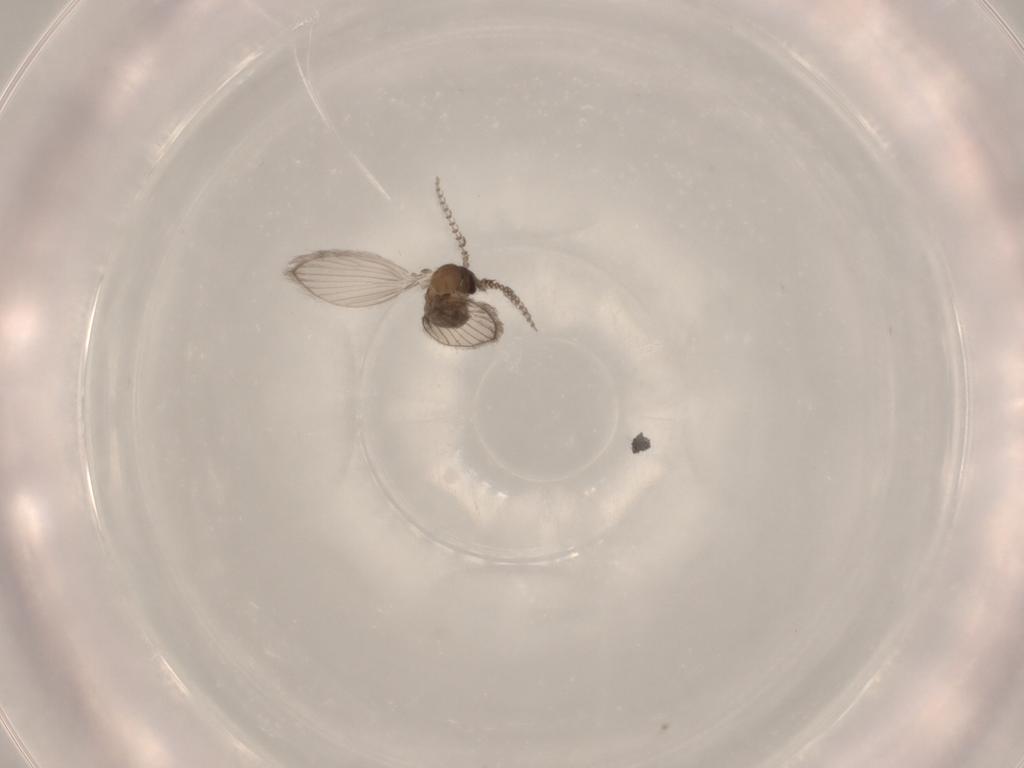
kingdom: Animalia
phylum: Arthropoda
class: Insecta
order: Diptera
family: Psychodidae
